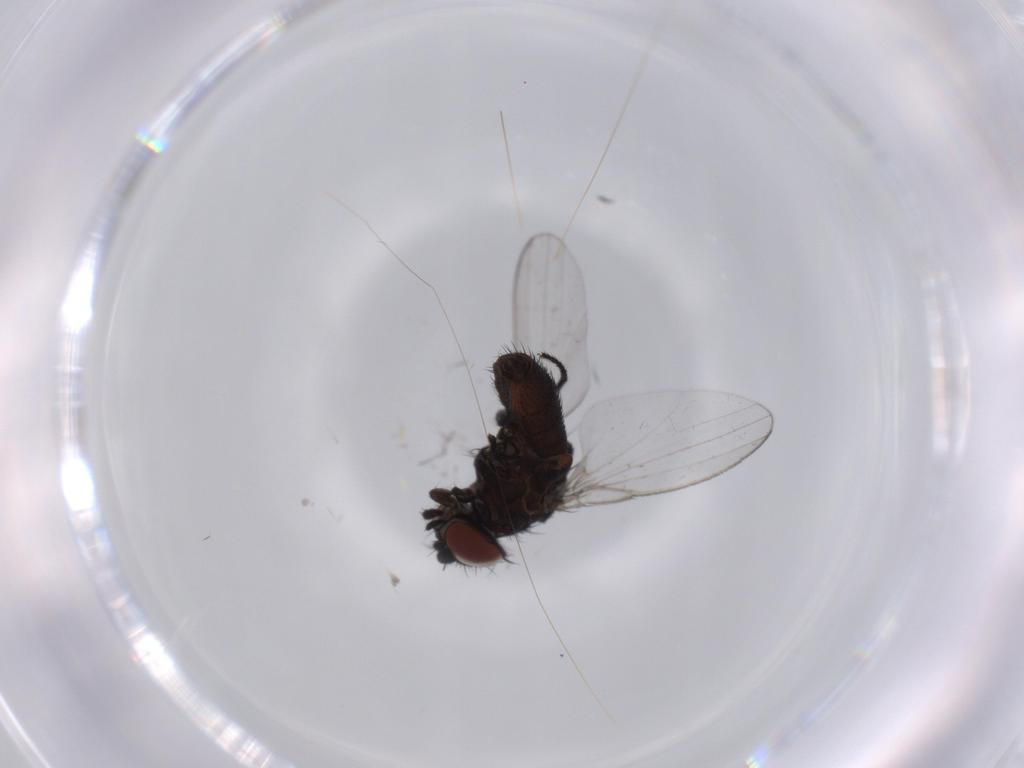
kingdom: Animalia
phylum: Arthropoda
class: Insecta
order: Diptera
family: Milichiidae
